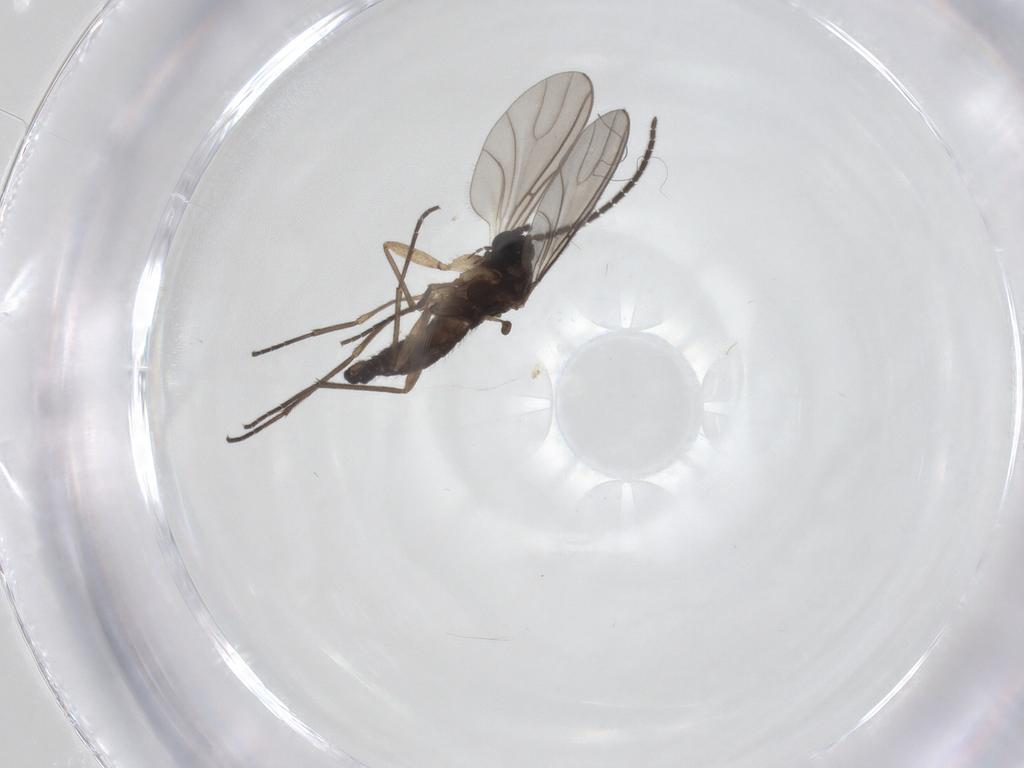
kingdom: Animalia
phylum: Arthropoda
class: Insecta
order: Diptera
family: Sciaridae
